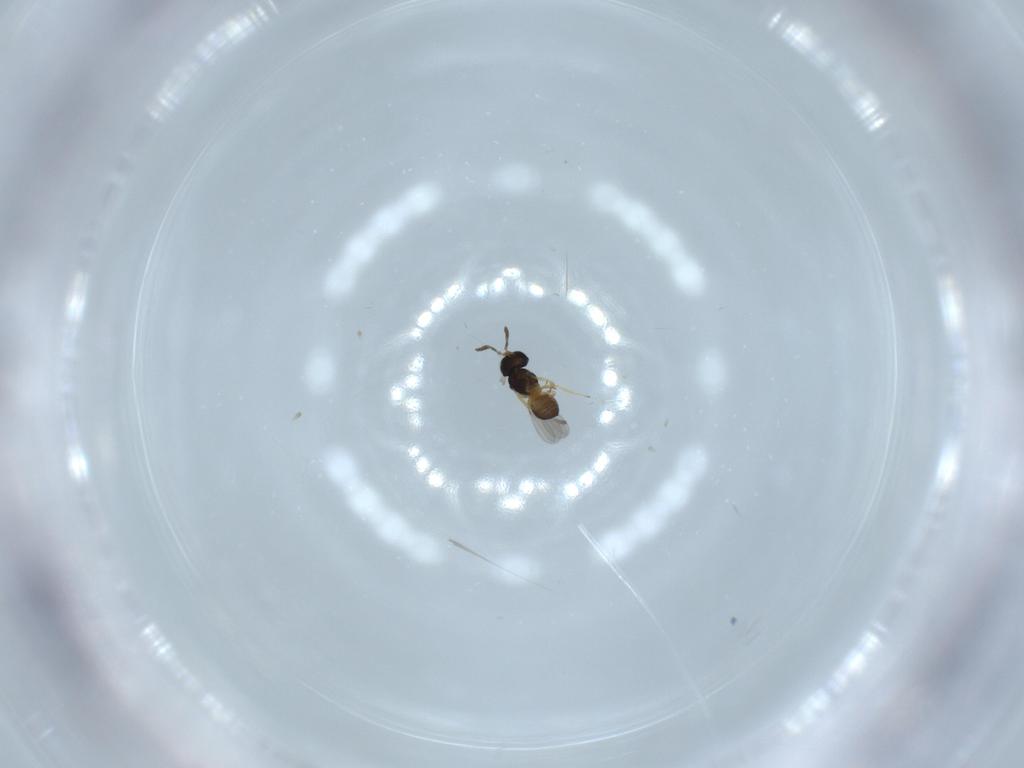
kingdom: Animalia
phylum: Arthropoda
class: Insecta
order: Hymenoptera
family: Scelionidae
